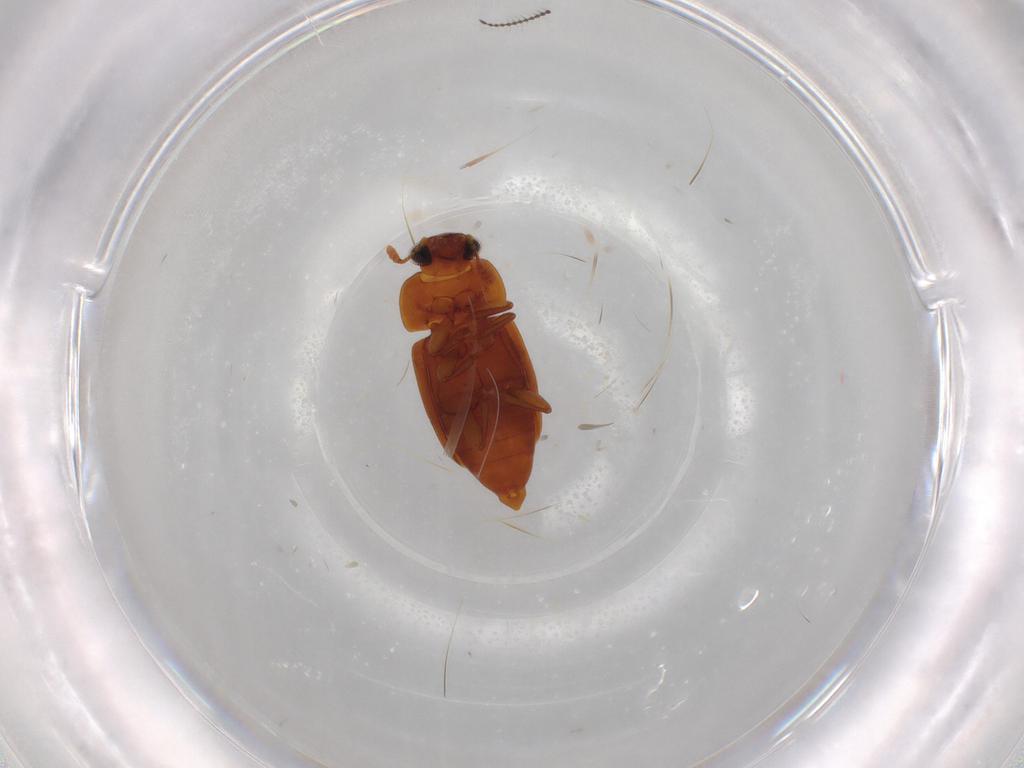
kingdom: Animalia
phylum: Arthropoda
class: Insecta
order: Coleoptera
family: Nitidulidae
